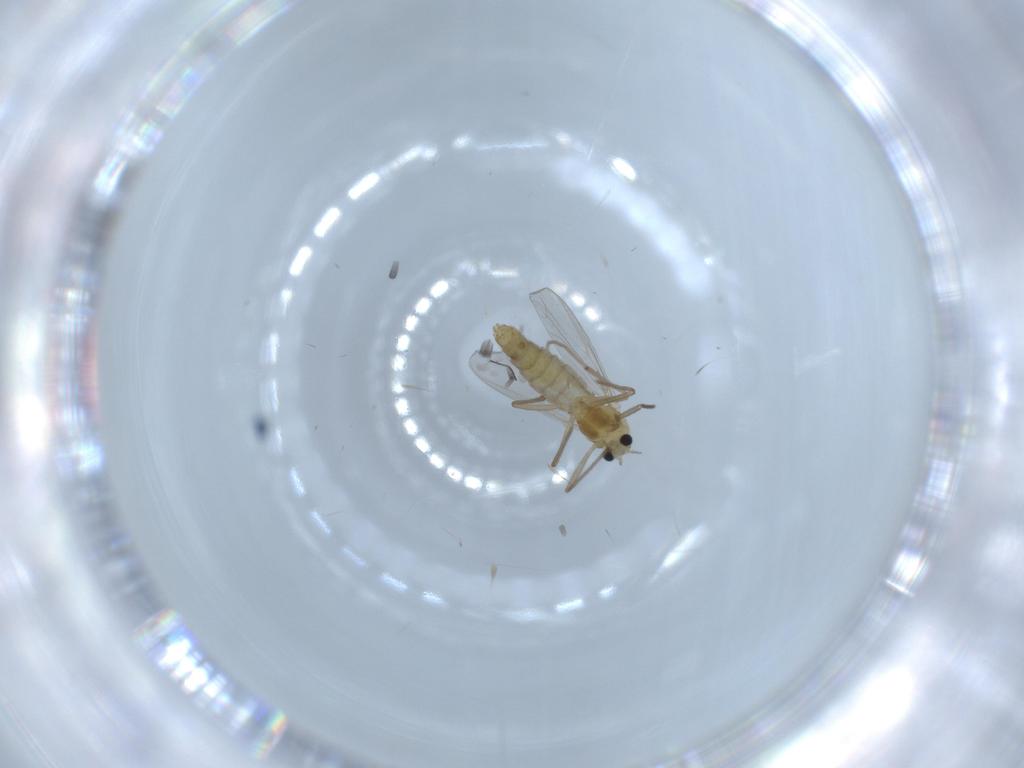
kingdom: Animalia
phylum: Arthropoda
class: Insecta
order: Diptera
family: Chironomidae
